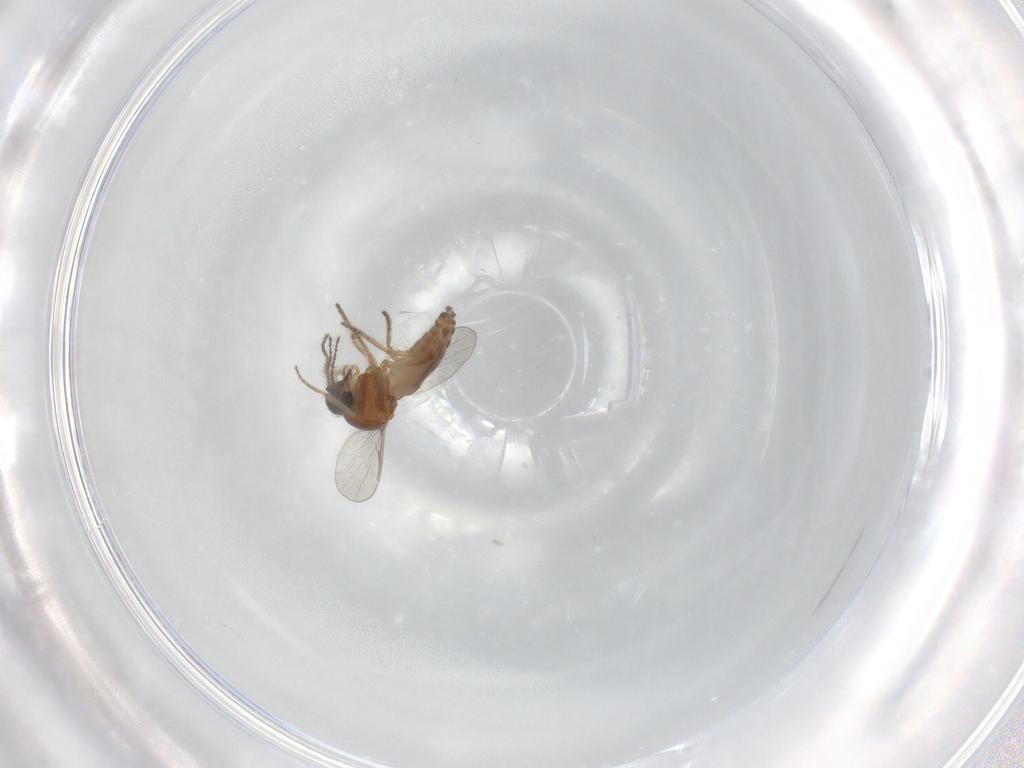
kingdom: Animalia
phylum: Arthropoda
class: Insecta
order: Diptera
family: Ceratopogonidae
